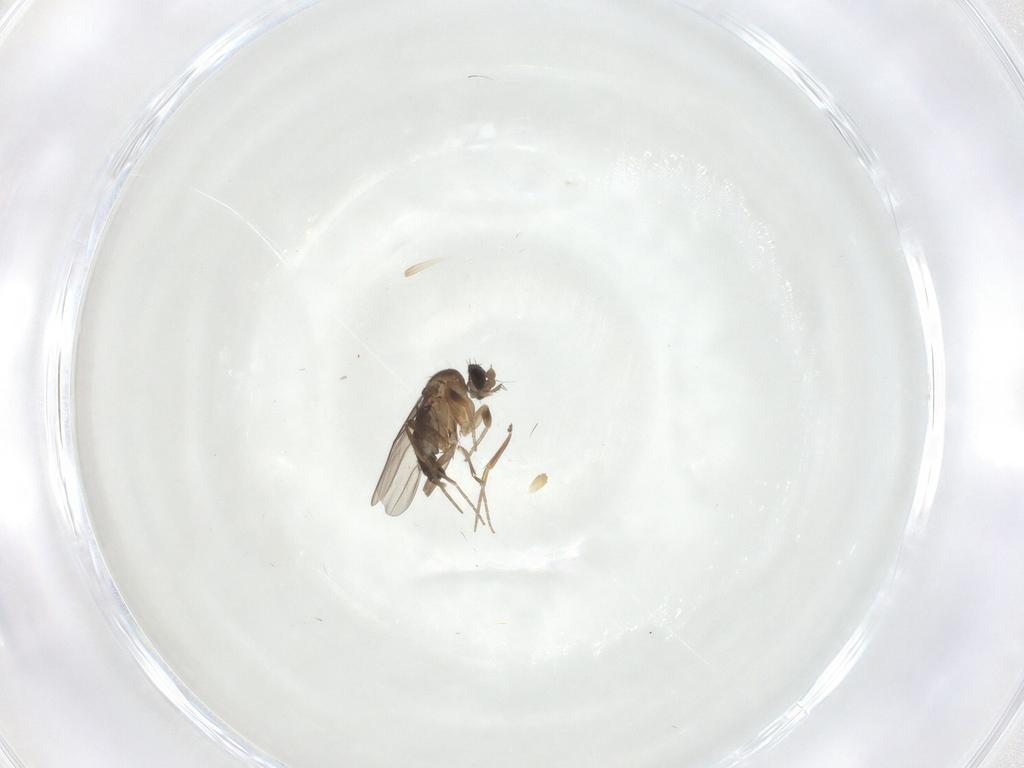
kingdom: Animalia
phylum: Arthropoda
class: Insecta
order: Diptera
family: Phoridae
